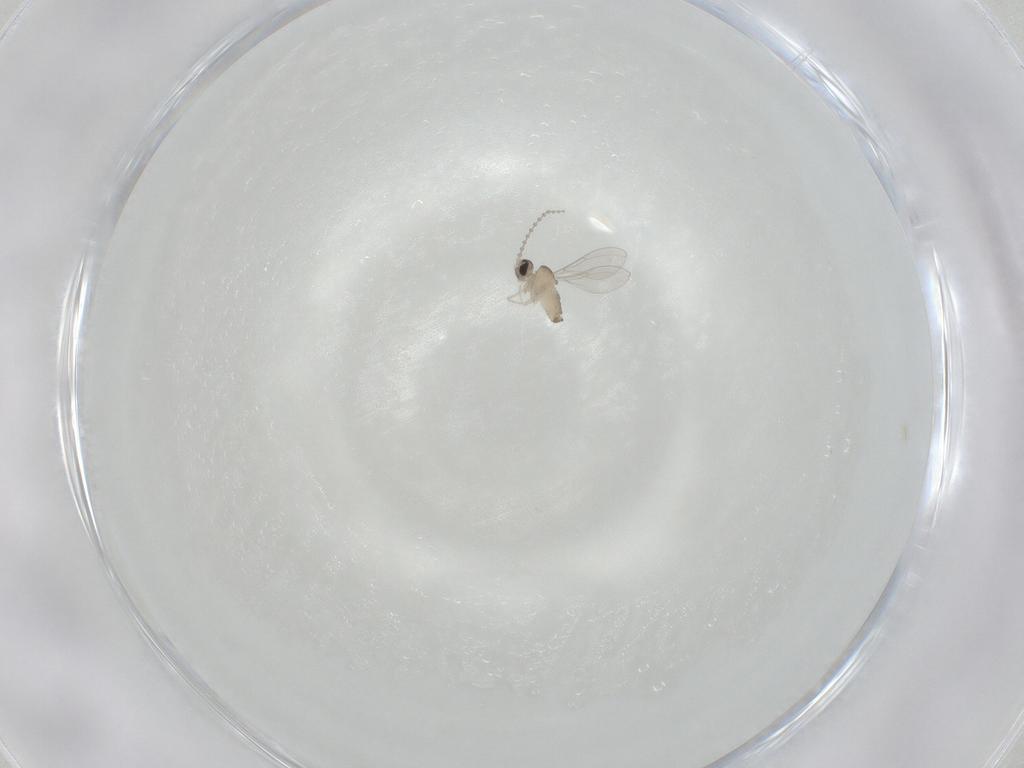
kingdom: Animalia
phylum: Arthropoda
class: Insecta
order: Diptera
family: Cecidomyiidae
